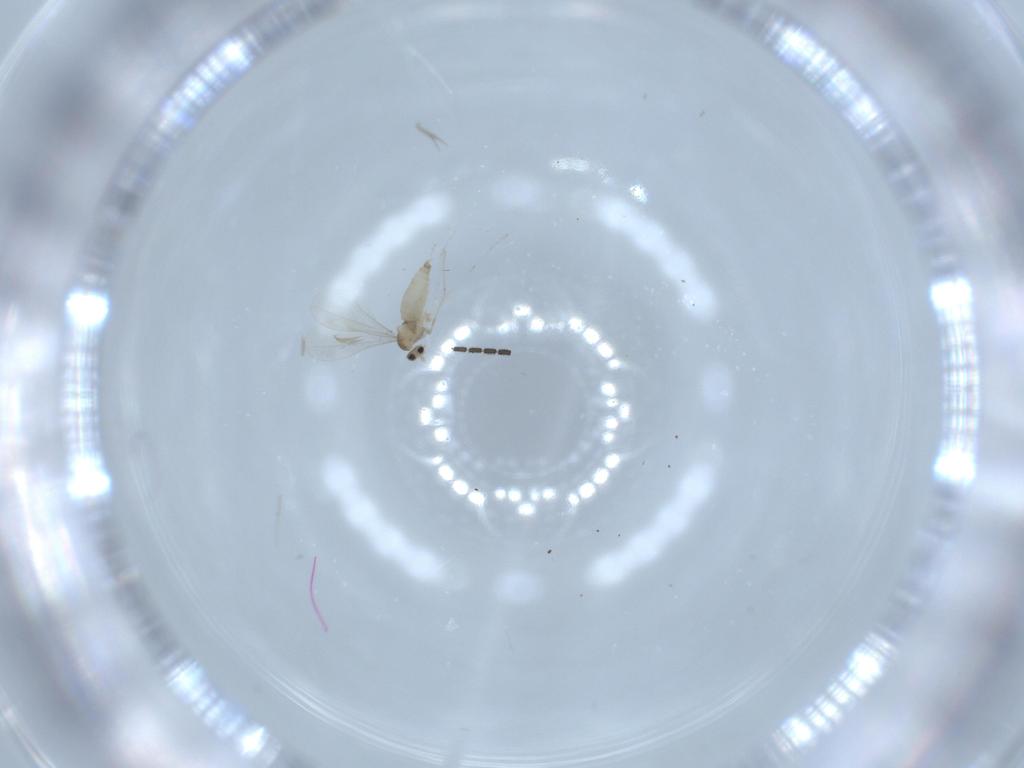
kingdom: Animalia
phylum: Arthropoda
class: Insecta
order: Diptera
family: Cecidomyiidae
